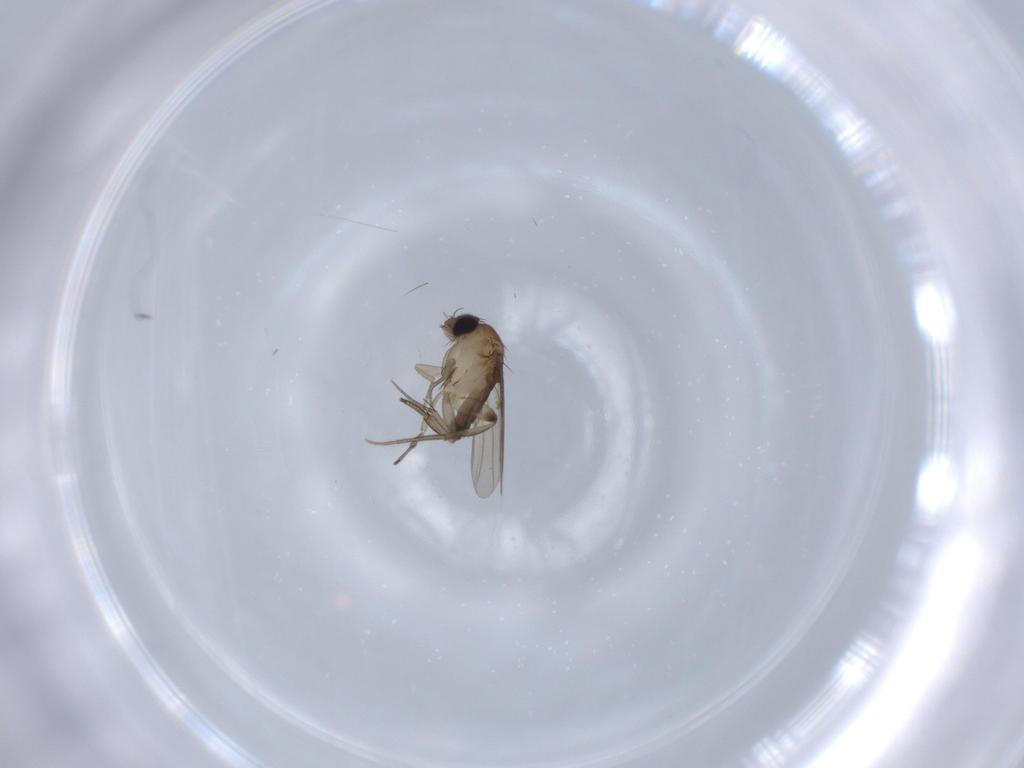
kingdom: Animalia
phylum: Arthropoda
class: Insecta
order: Diptera
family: Phoridae
